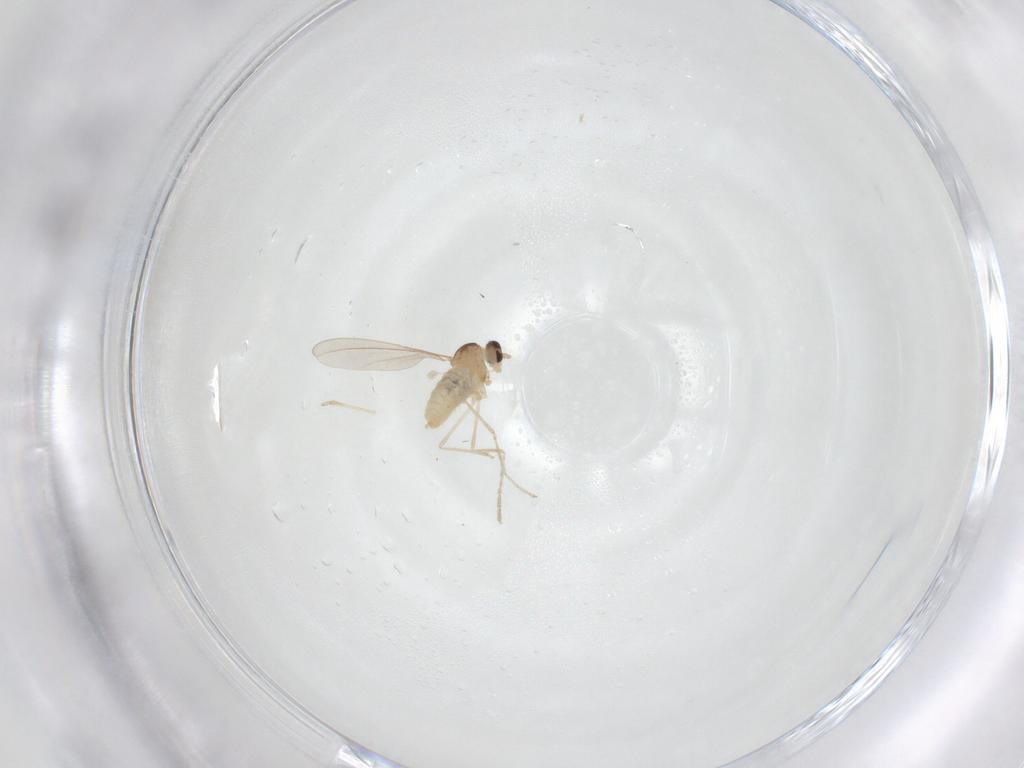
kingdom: Animalia
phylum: Arthropoda
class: Insecta
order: Diptera
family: Cecidomyiidae
